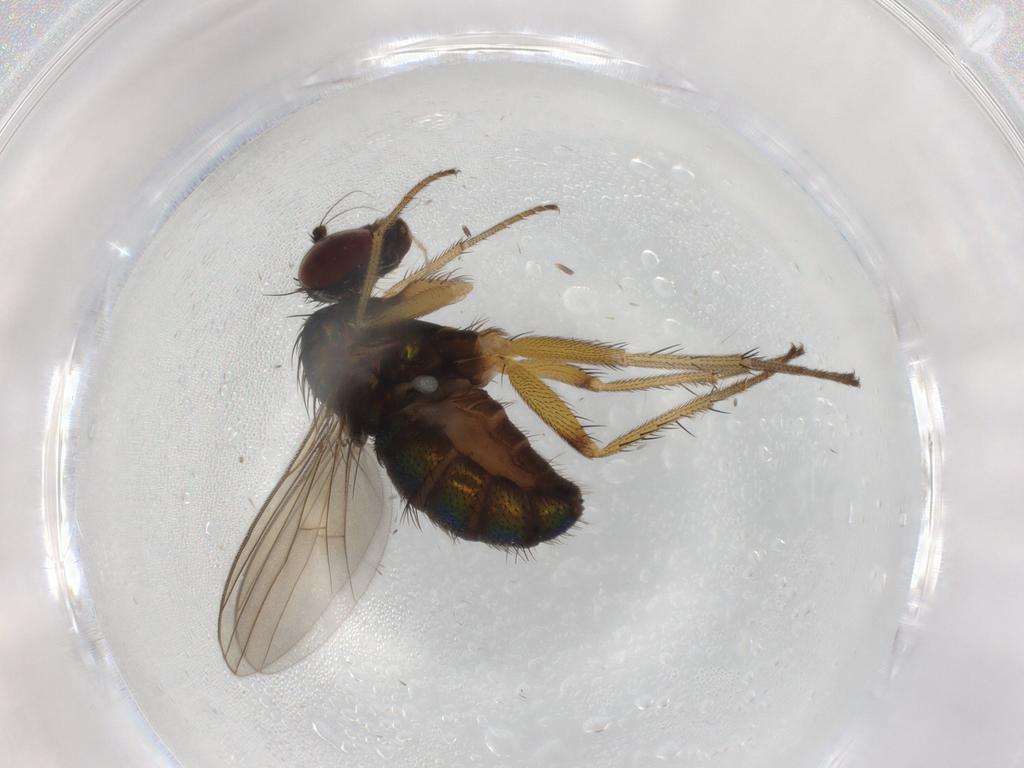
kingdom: Animalia
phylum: Arthropoda
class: Insecta
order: Diptera
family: Dolichopodidae
